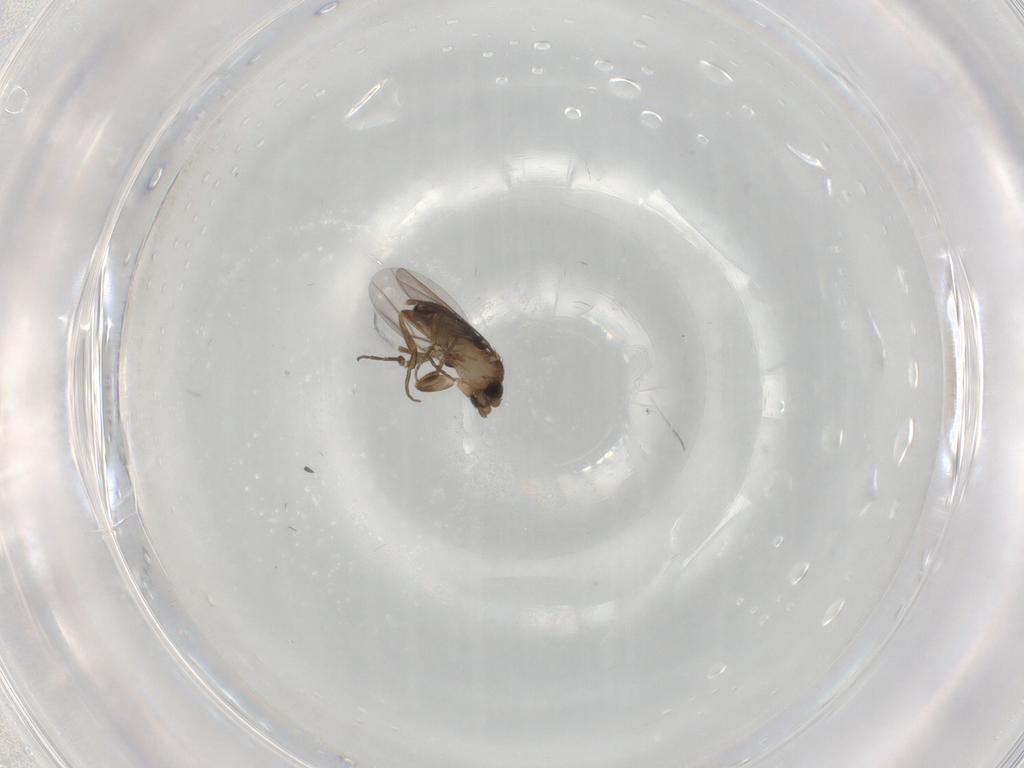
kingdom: Animalia
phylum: Arthropoda
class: Insecta
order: Diptera
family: Phoridae
